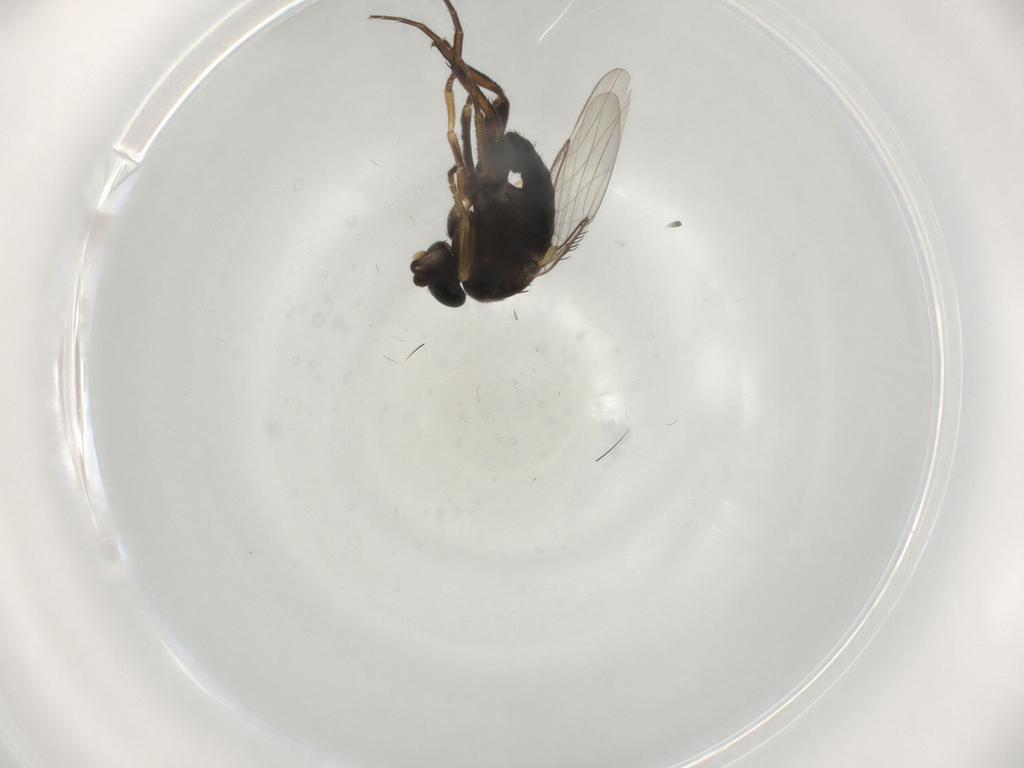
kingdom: Animalia
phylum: Arthropoda
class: Insecta
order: Diptera
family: Phoridae
